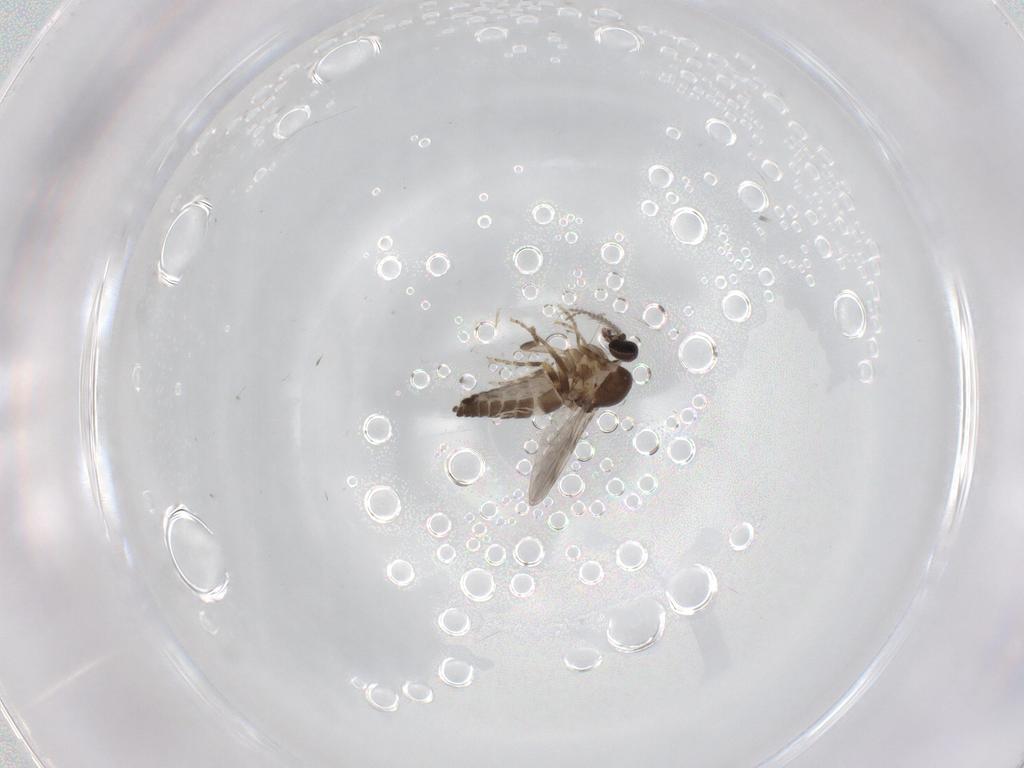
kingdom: Animalia
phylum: Arthropoda
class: Insecta
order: Diptera
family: Ceratopogonidae
